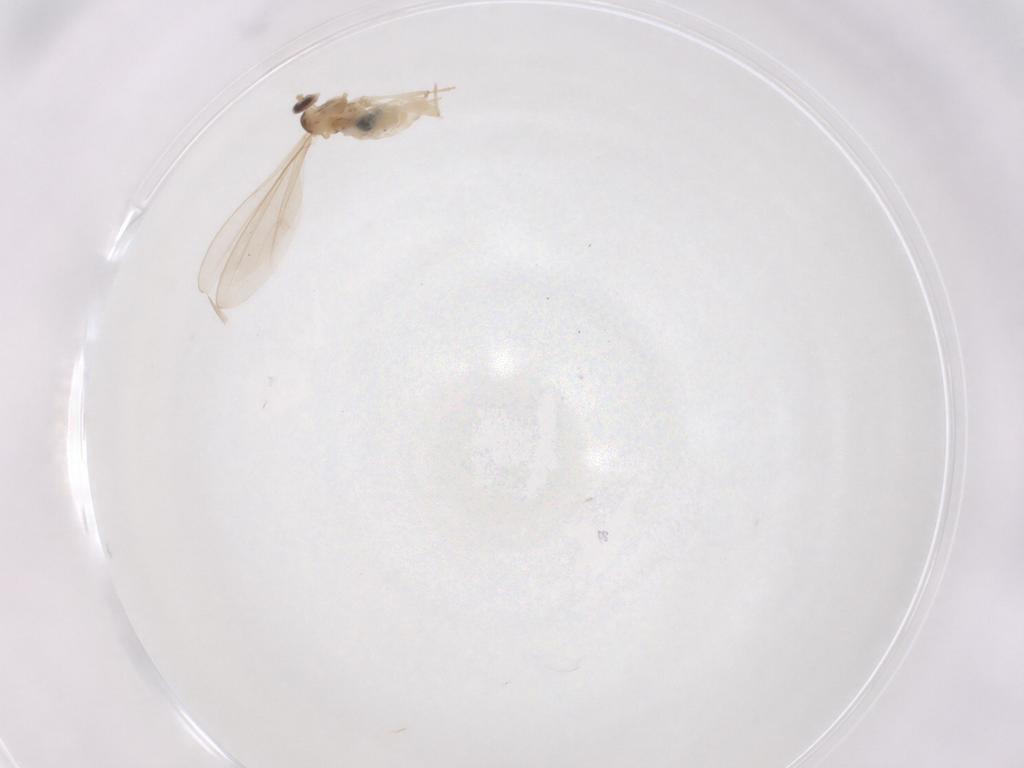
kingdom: Animalia
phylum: Arthropoda
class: Insecta
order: Diptera
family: Cecidomyiidae
